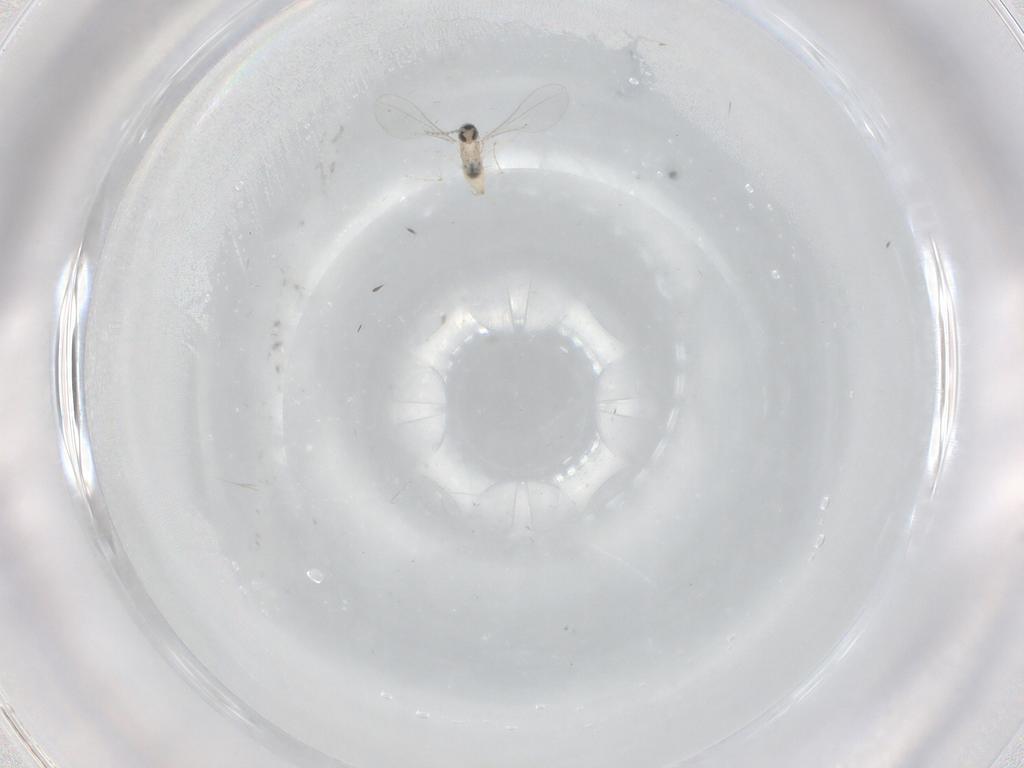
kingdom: Animalia
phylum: Arthropoda
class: Insecta
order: Diptera
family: Cecidomyiidae
